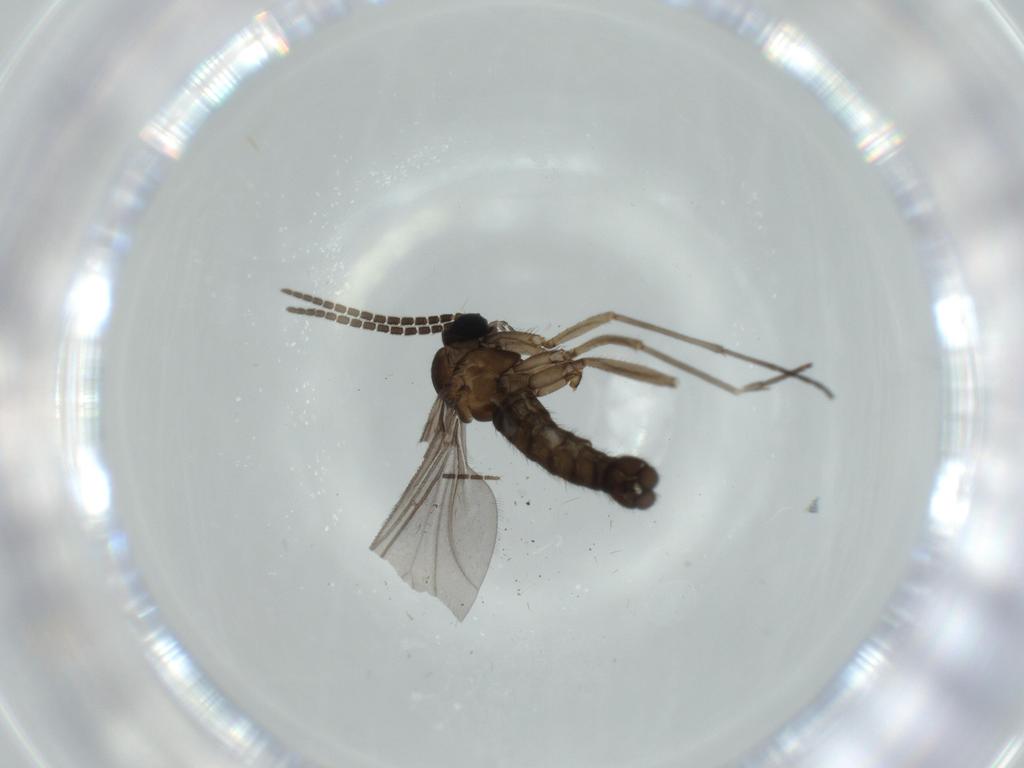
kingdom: Animalia
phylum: Arthropoda
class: Insecta
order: Diptera
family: Sciaridae
